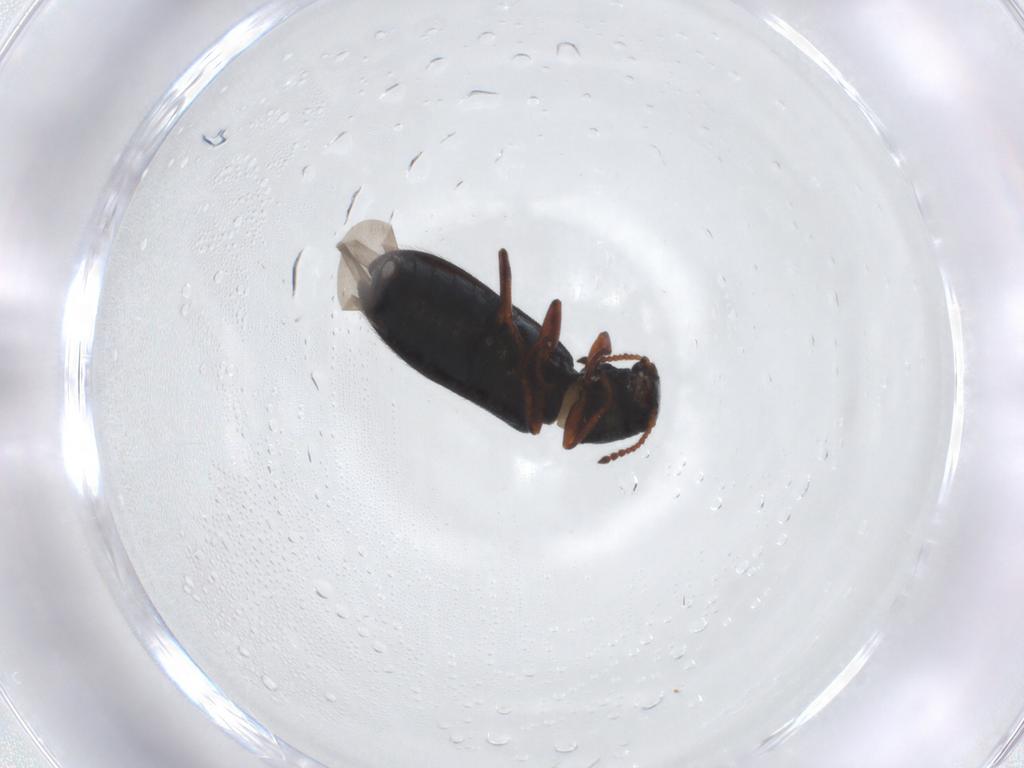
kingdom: Animalia
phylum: Arthropoda
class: Insecta
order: Coleoptera
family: Melyridae
